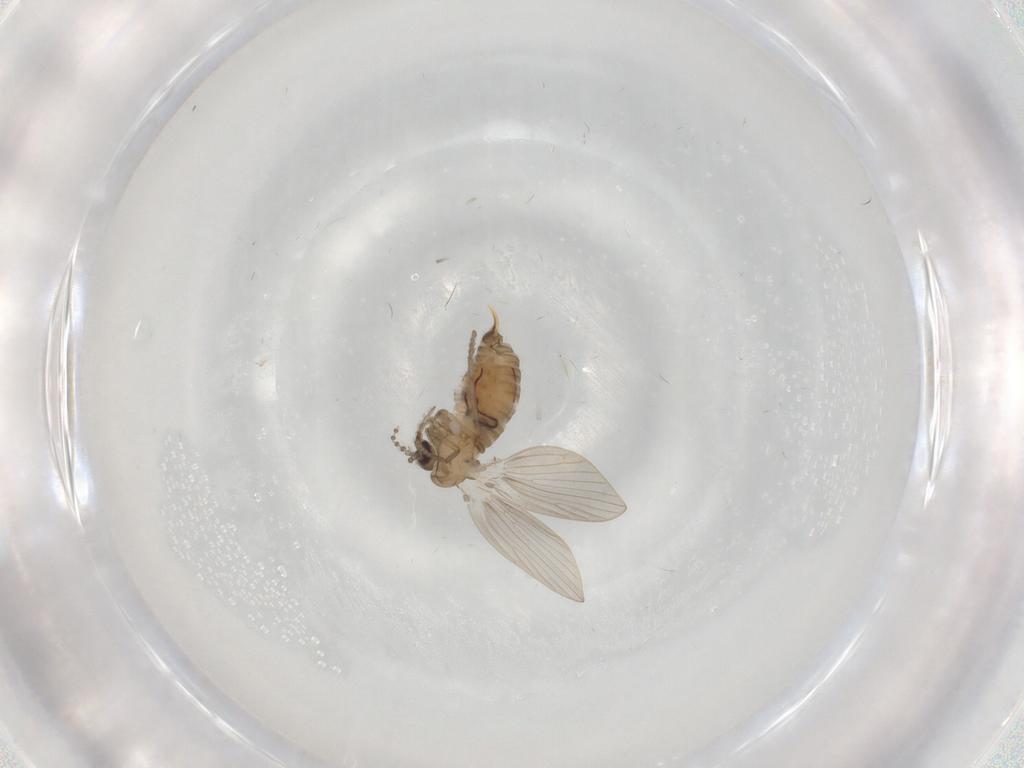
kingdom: Animalia
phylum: Arthropoda
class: Insecta
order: Diptera
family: Psychodidae
